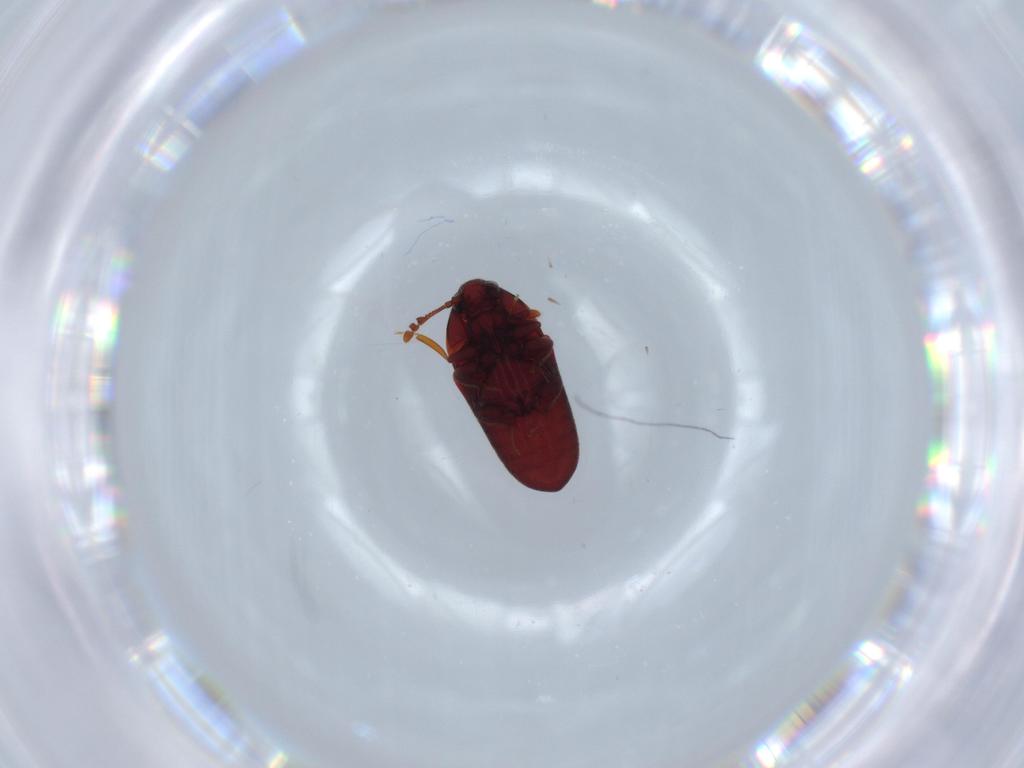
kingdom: Animalia
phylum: Arthropoda
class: Insecta
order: Coleoptera
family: Throscidae
